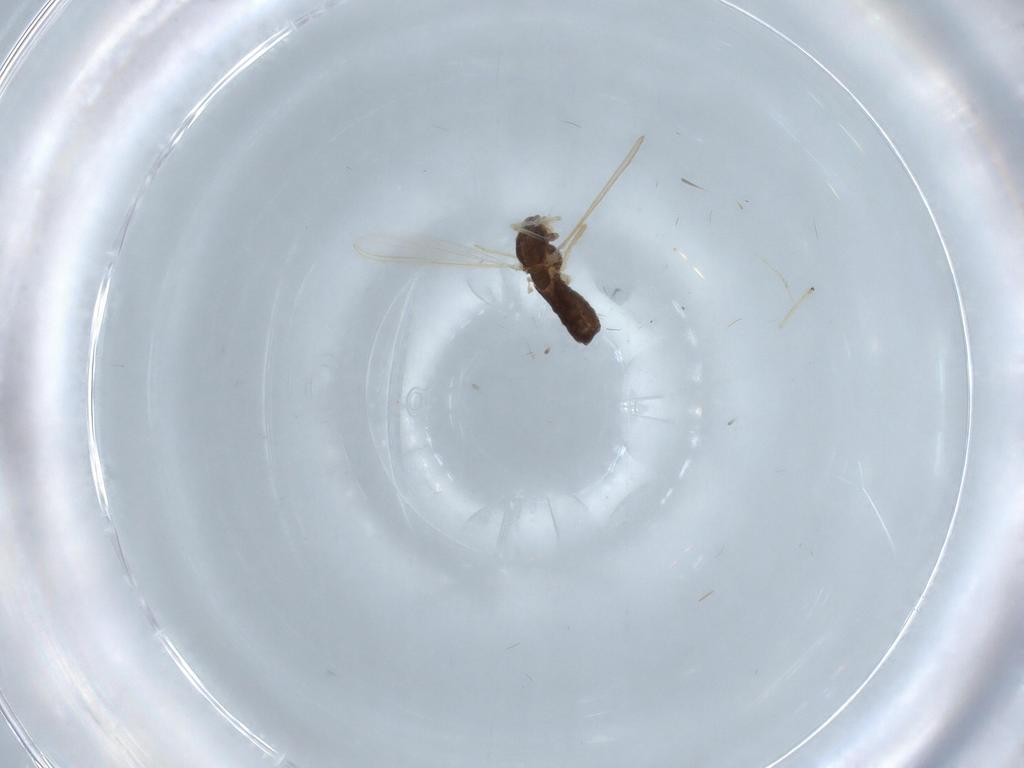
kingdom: Animalia
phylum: Arthropoda
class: Insecta
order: Diptera
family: Chironomidae
